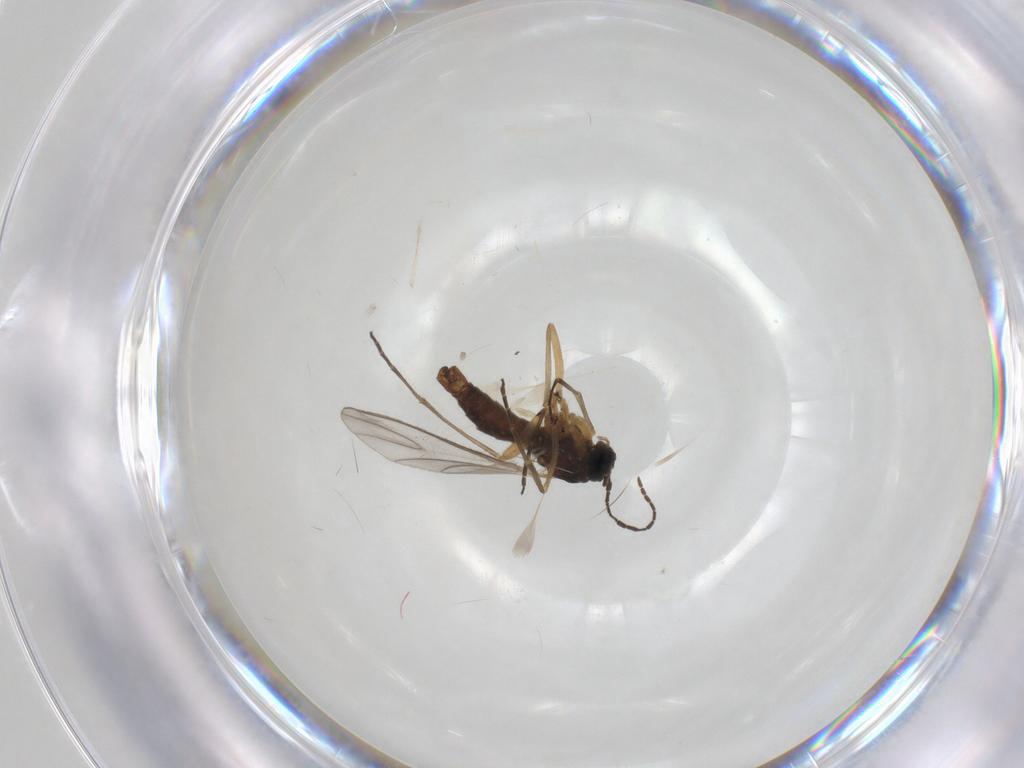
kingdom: Animalia
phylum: Arthropoda
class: Insecta
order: Diptera
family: Sciaridae
